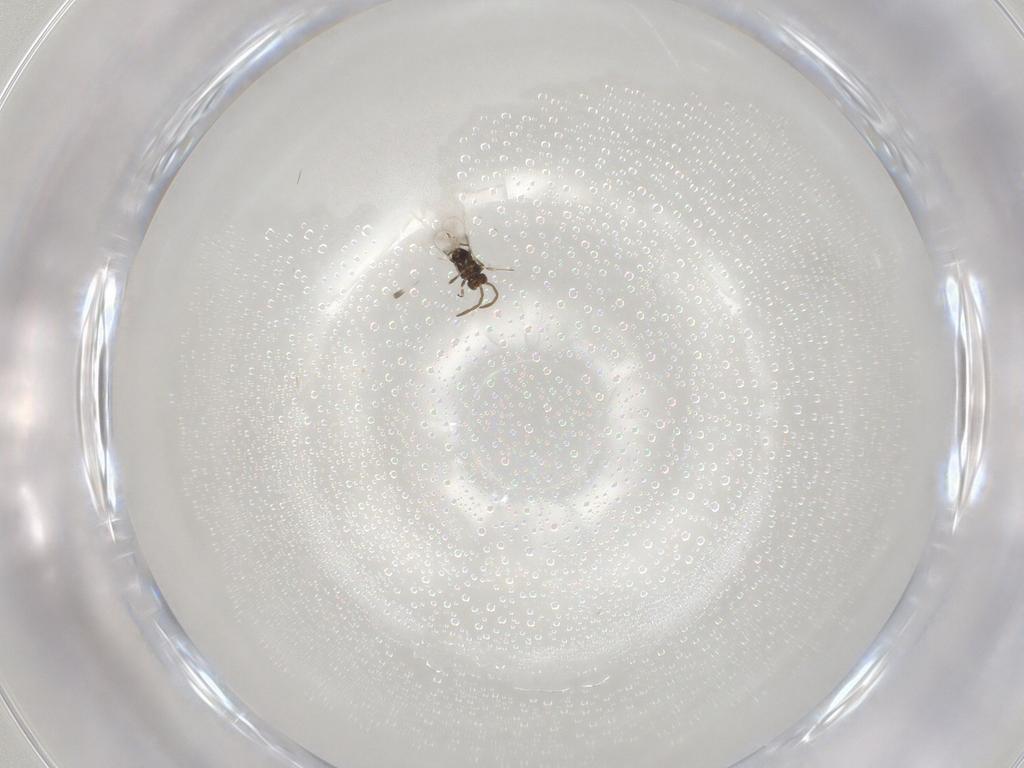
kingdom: Animalia
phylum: Arthropoda
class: Insecta
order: Hymenoptera
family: Azotidae
